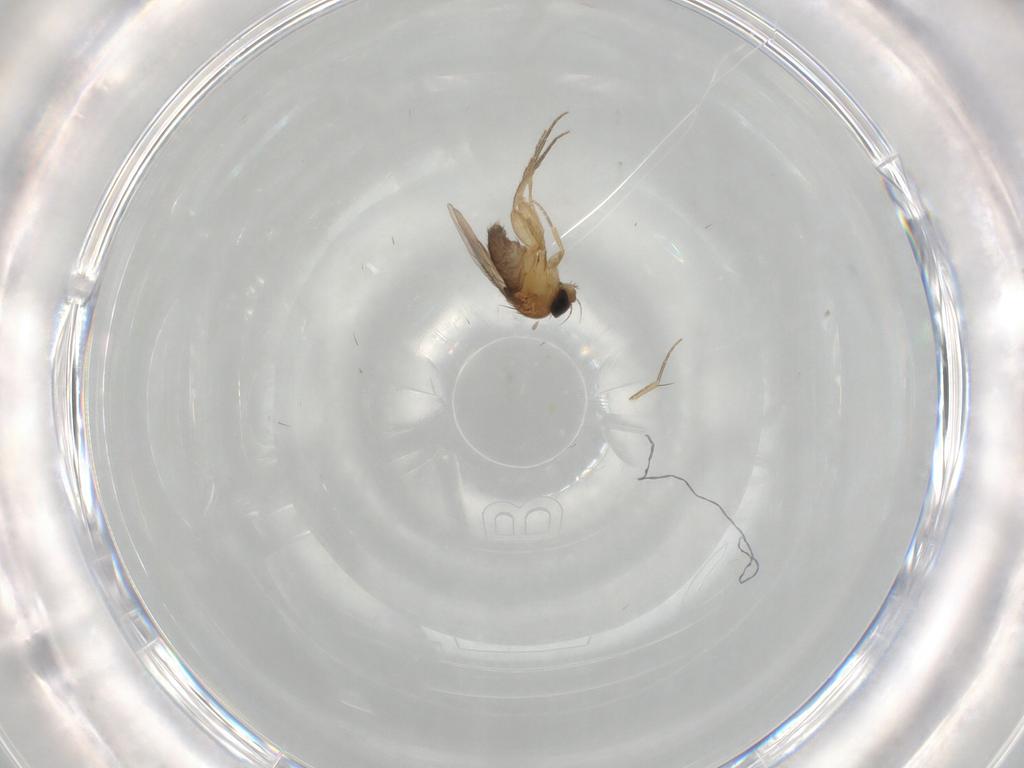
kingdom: Animalia
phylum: Arthropoda
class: Insecta
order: Diptera
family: Phoridae
